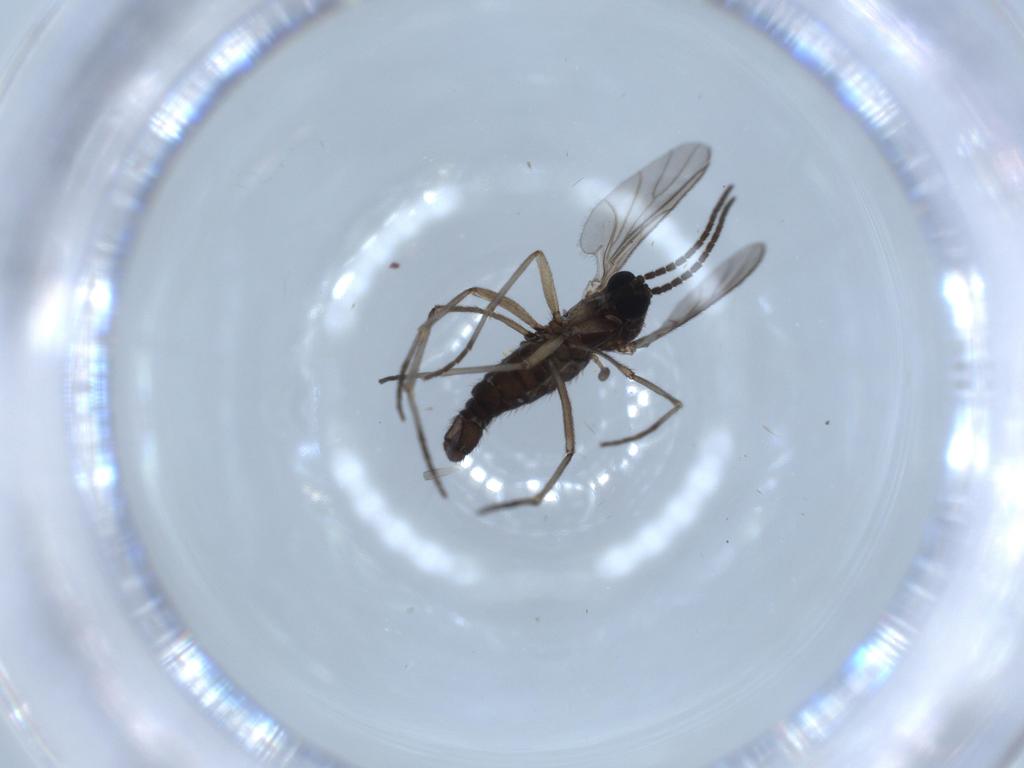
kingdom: Animalia
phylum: Arthropoda
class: Insecta
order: Diptera
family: Sciaridae
